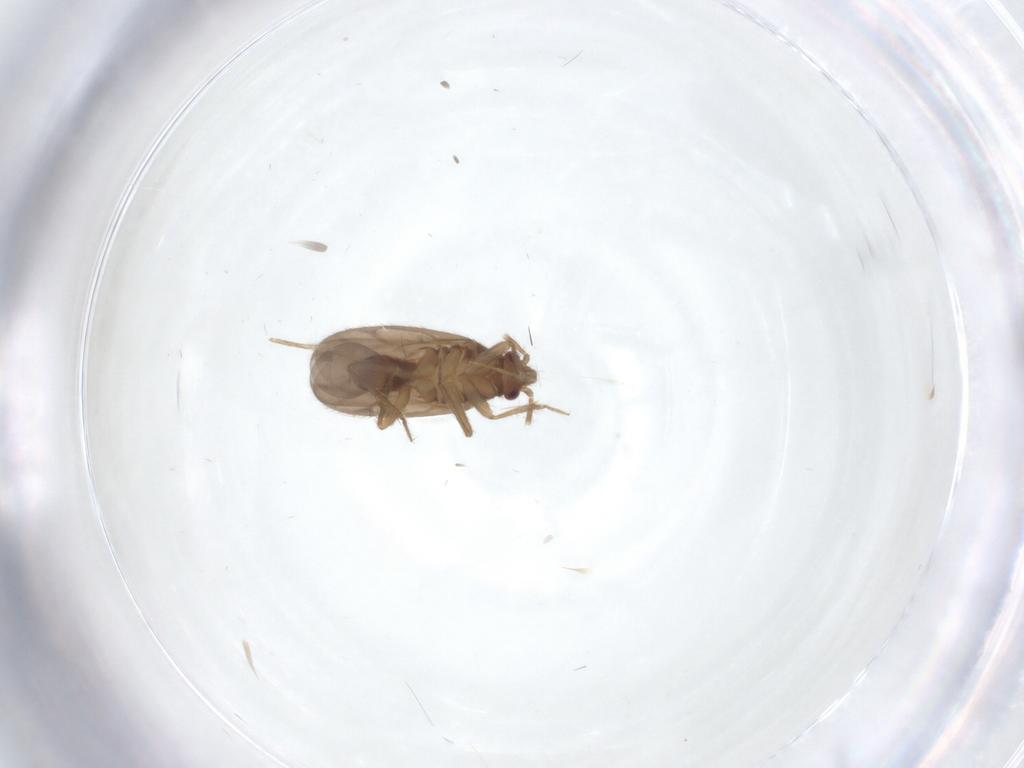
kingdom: Animalia
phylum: Arthropoda
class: Insecta
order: Hemiptera
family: Ceratocombidae
